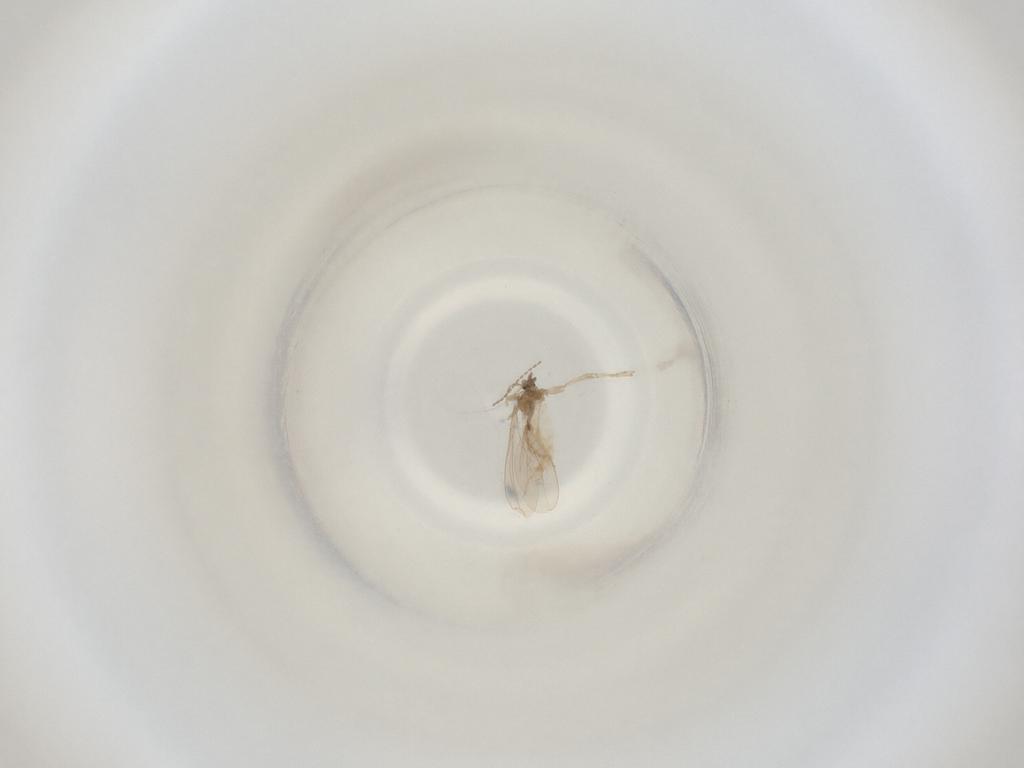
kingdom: Animalia
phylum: Arthropoda
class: Insecta
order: Diptera
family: Cecidomyiidae
